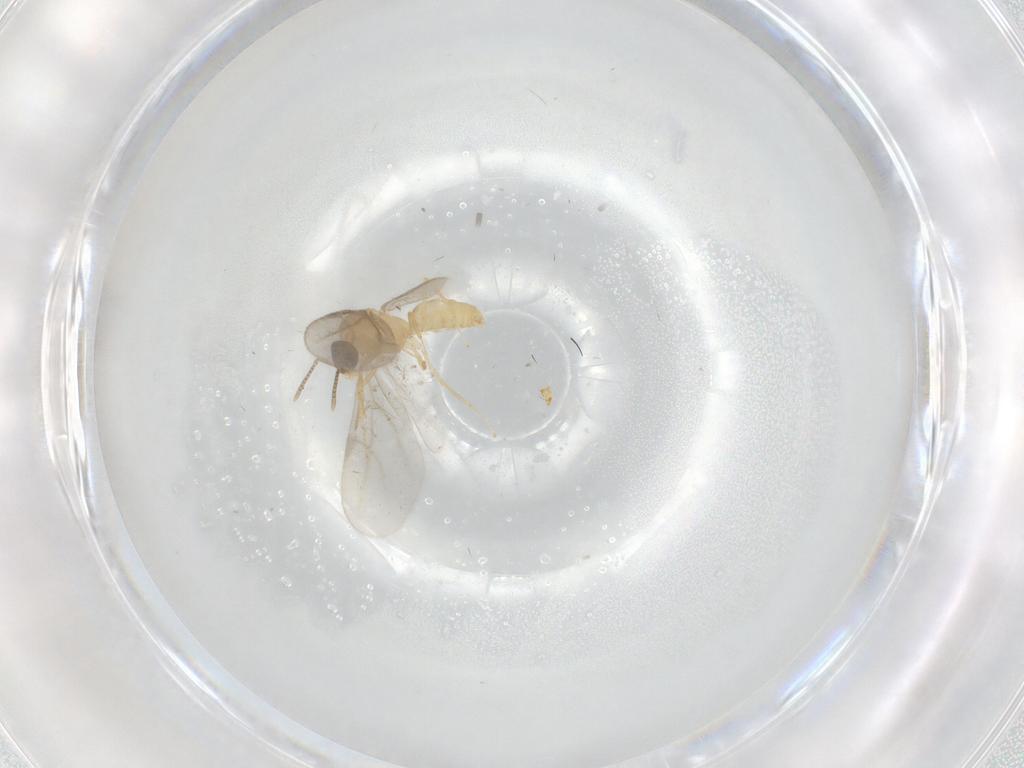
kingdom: Animalia
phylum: Arthropoda
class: Insecta
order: Hymenoptera
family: Formicidae
